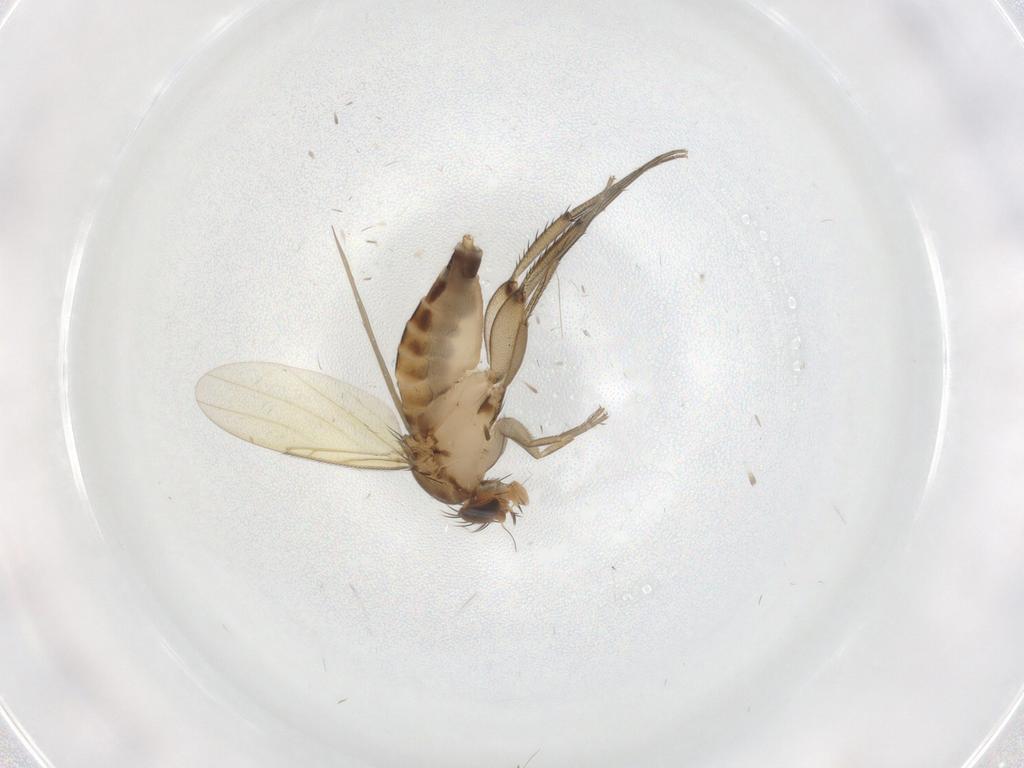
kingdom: Animalia
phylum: Arthropoda
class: Insecta
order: Diptera
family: Phoridae
